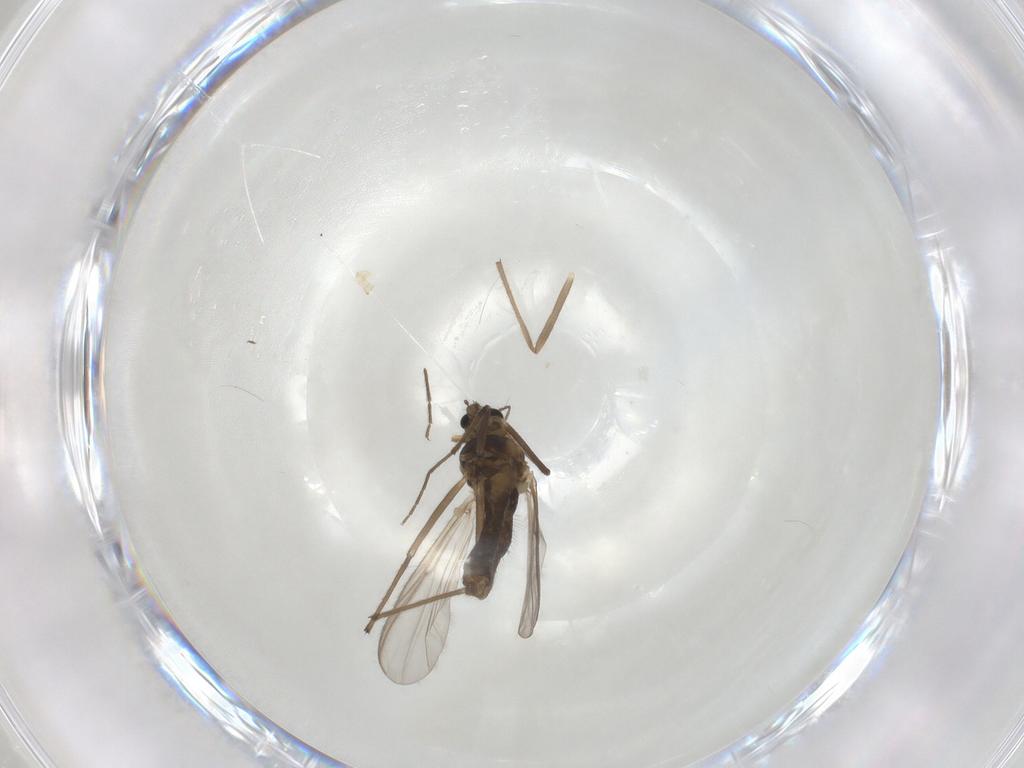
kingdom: Animalia
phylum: Arthropoda
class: Insecta
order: Diptera
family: Chironomidae
